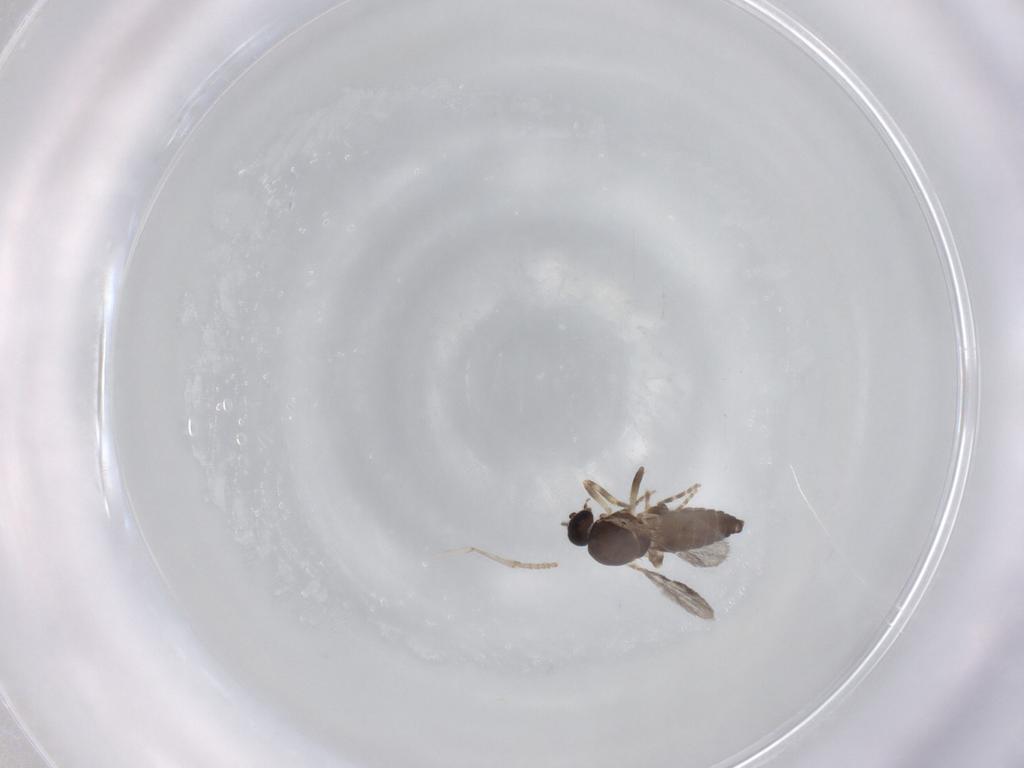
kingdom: Animalia
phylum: Arthropoda
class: Insecta
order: Diptera
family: Ceratopogonidae
